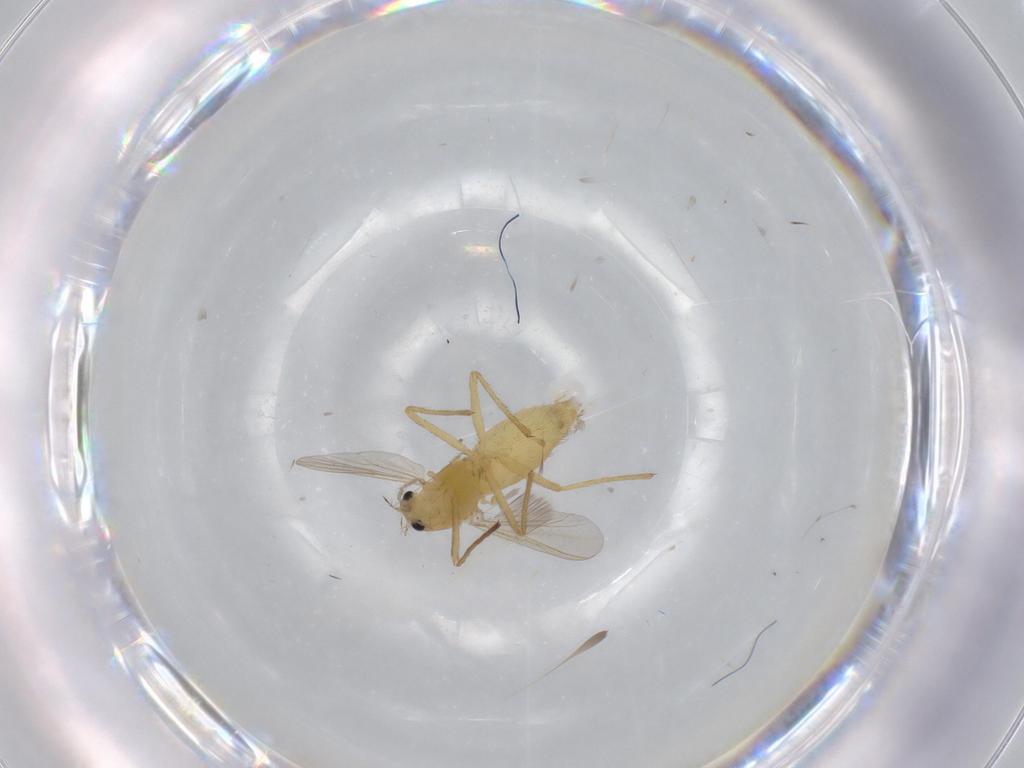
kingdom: Animalia
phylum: Arthropoda
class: Insecta
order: Diptera
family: Chironomidae
